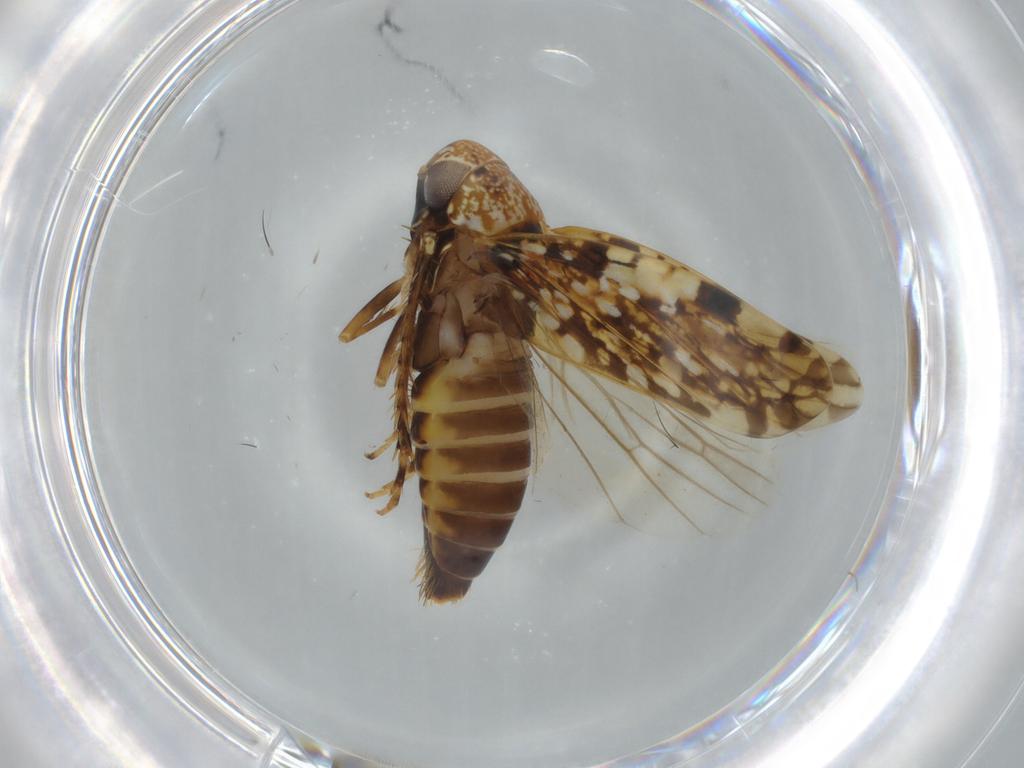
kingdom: Animalia
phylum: Arthropoda
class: Insecta
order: Hemiptera
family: Cicadellidae
